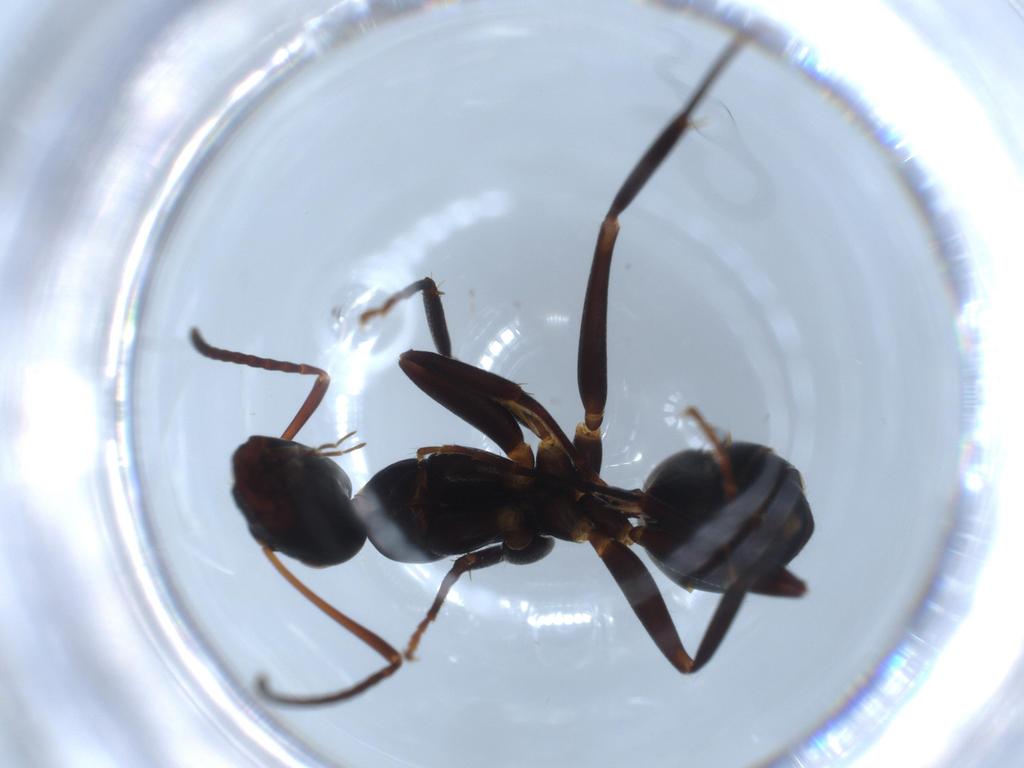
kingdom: Animalia
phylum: Arthropoda
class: Insecta
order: Hymenoptera
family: Formicidae
